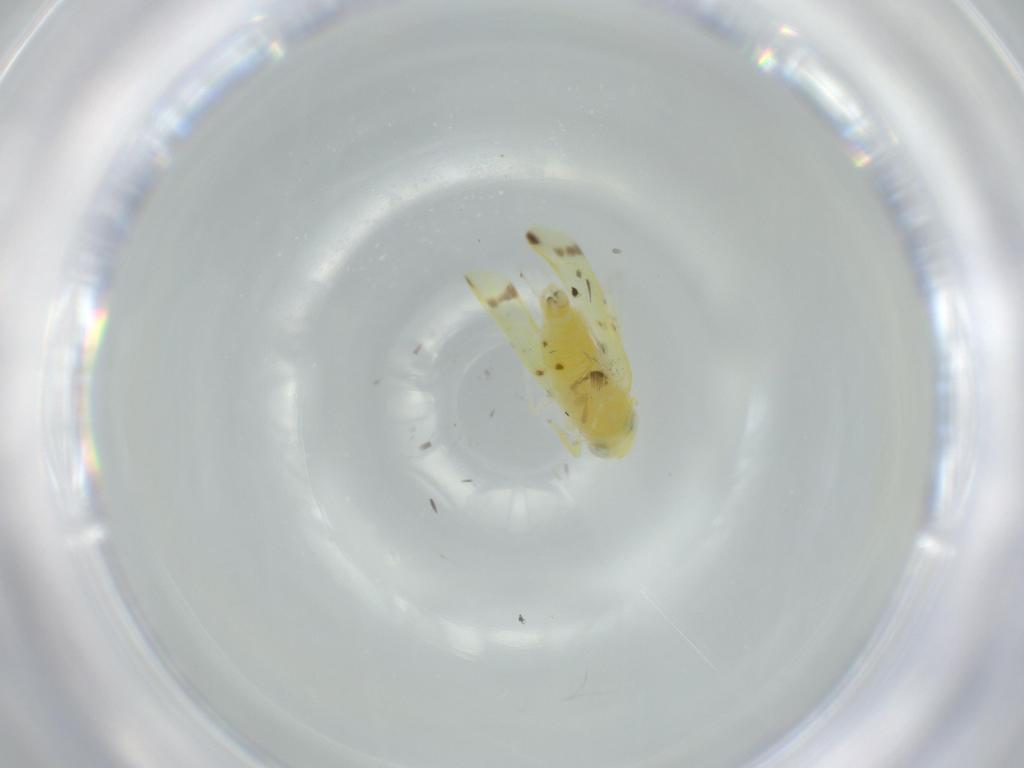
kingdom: Animalia
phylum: Arthropoda
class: Insecta
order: Hemiptera
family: Cicadellidae
